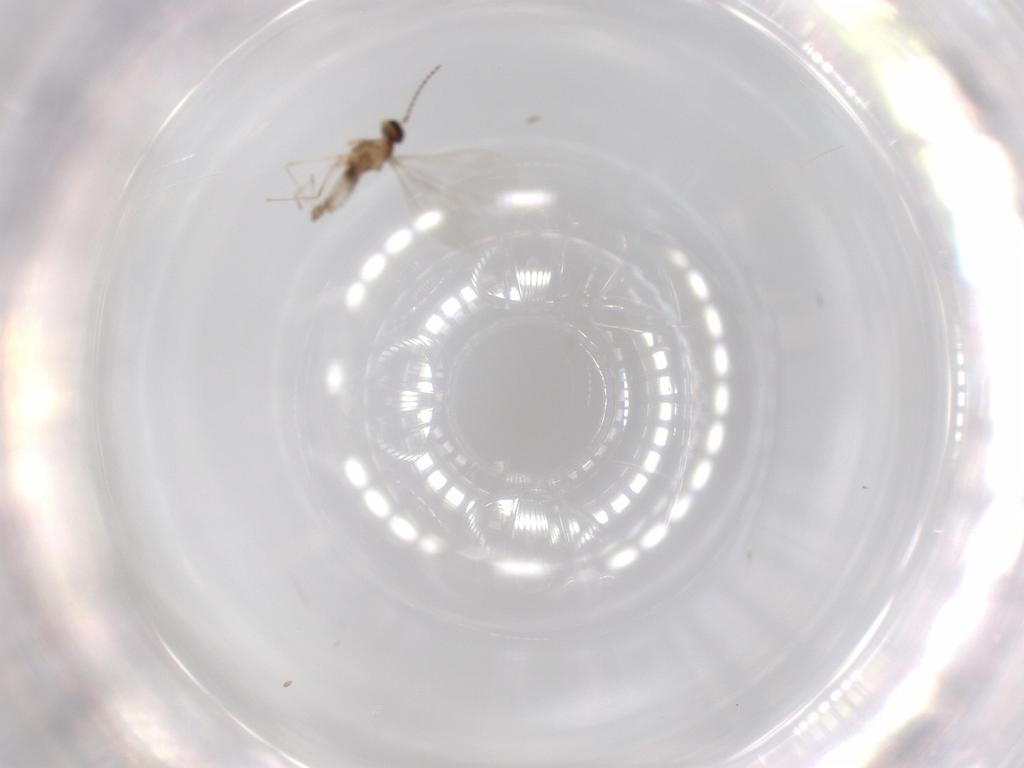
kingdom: Animalia
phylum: Arthropoda
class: Insecta
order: Diptera
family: Cecidomyiidae
